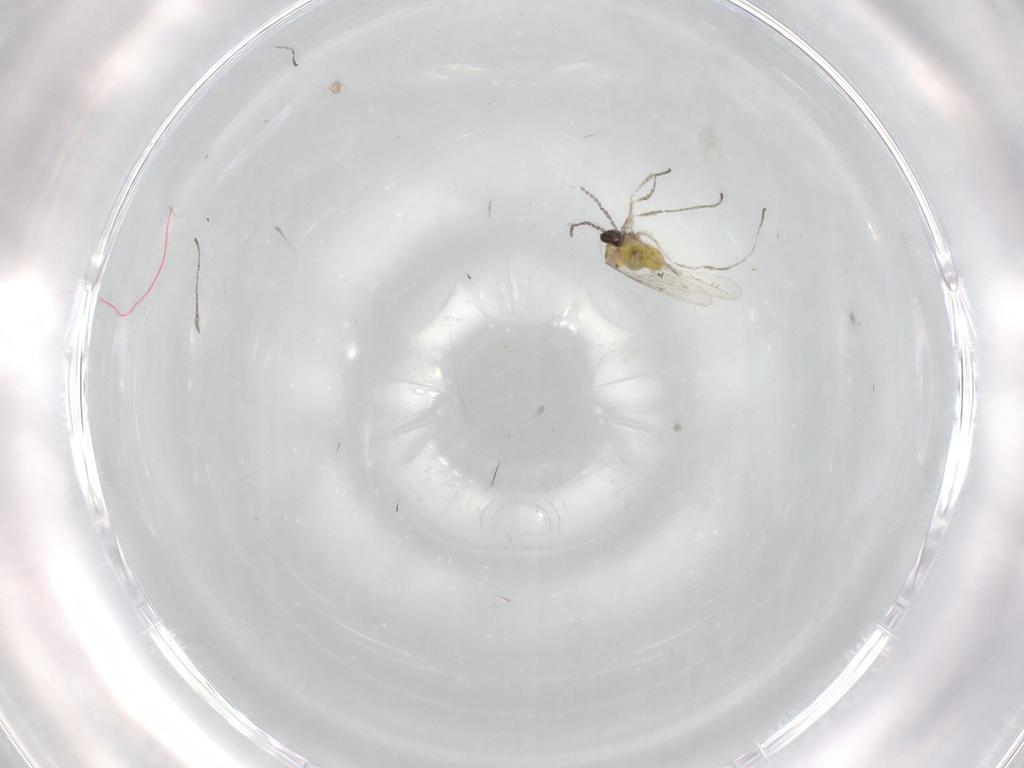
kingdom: Animalia
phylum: Arthropoda
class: Insecta
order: Diptera
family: Cecidomyiidae
